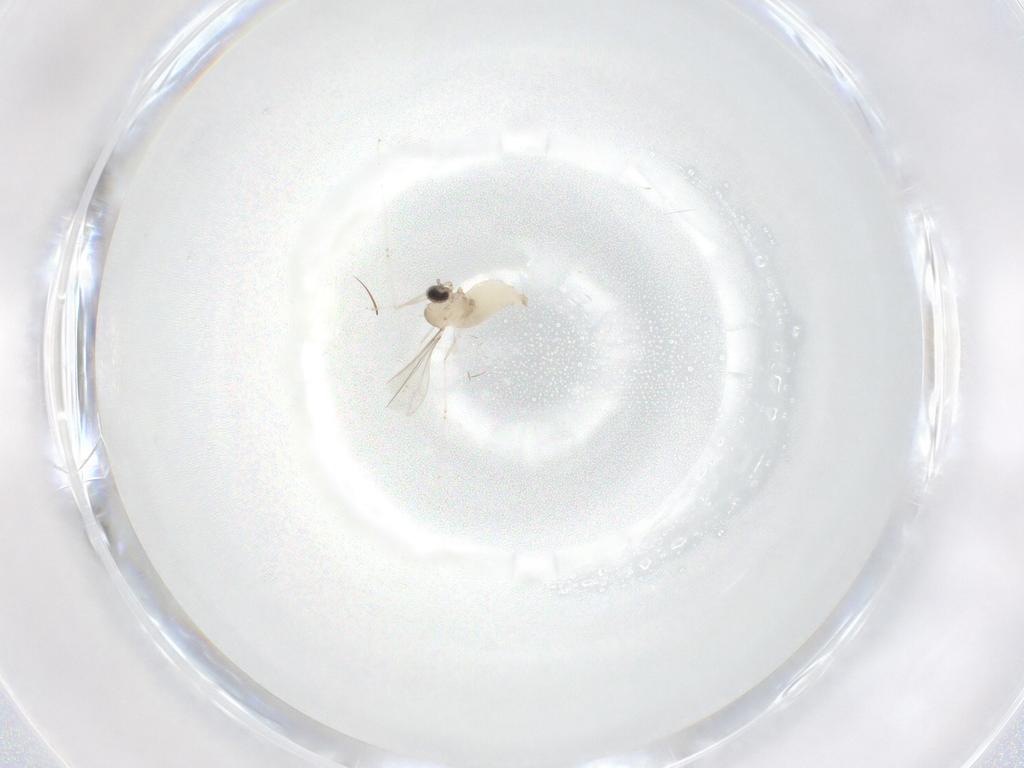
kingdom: Animalia
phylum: Arthropoda
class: Insecta
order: Diptera
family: Cecidomyiidae
